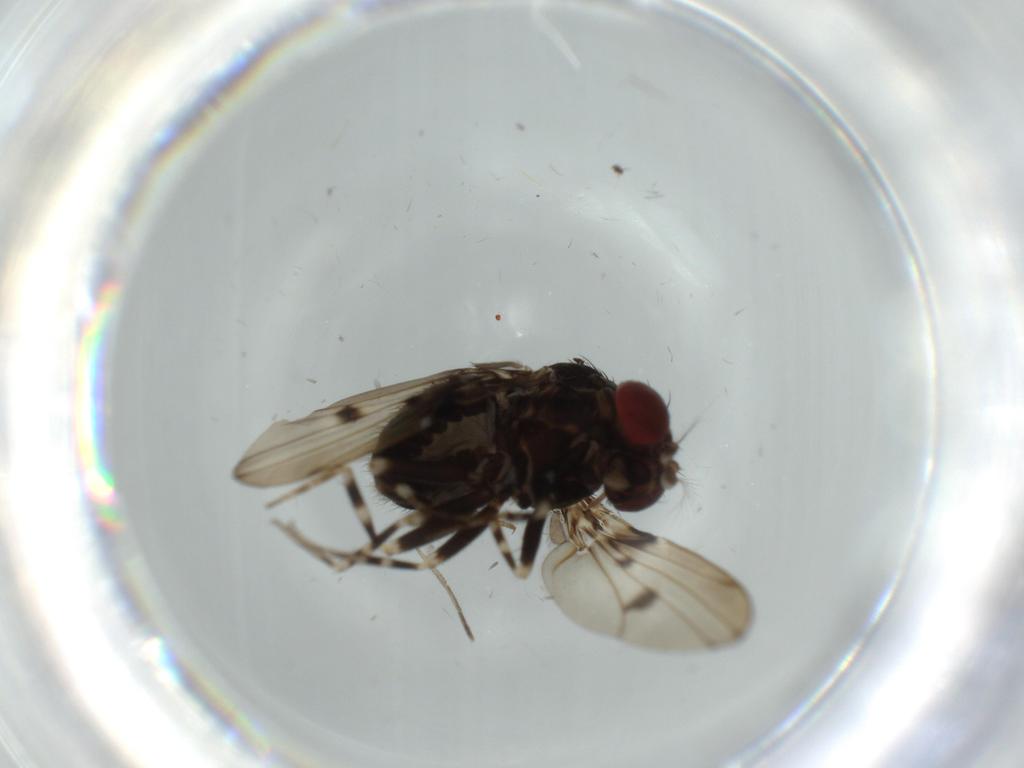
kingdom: Animalia
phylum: Arthropoda
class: Insecta
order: Diptera
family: Drosophilidae
